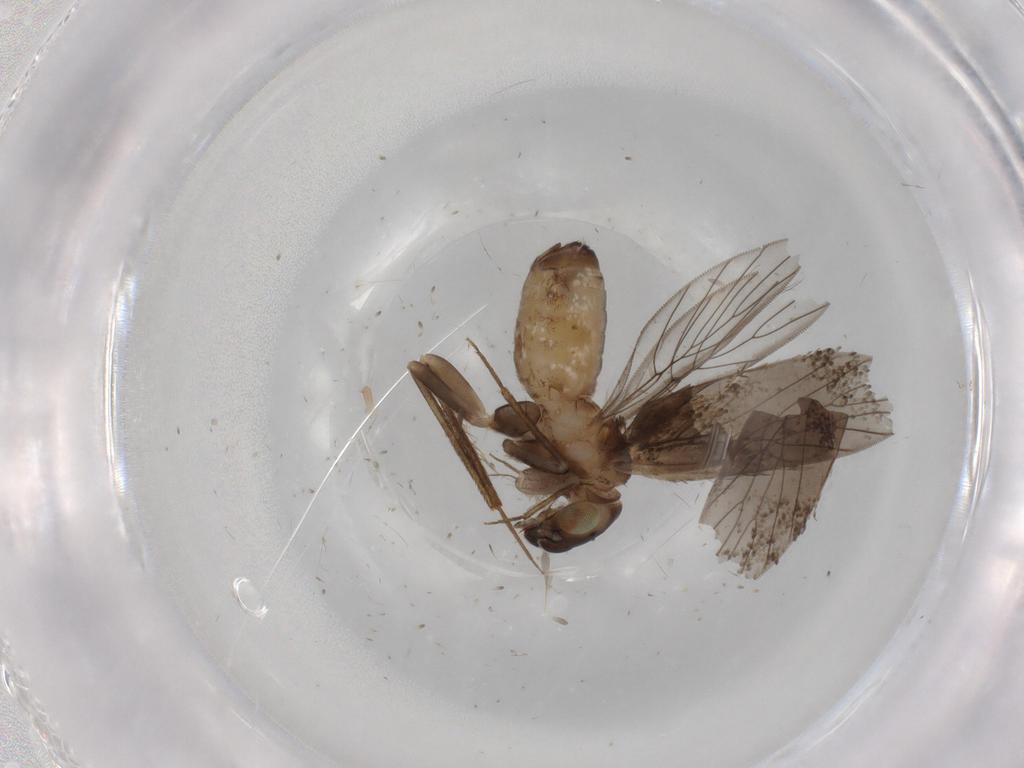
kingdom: Animalia
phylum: Arthropoda
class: Insecta
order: Psocodea
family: Lepidopsocidae
